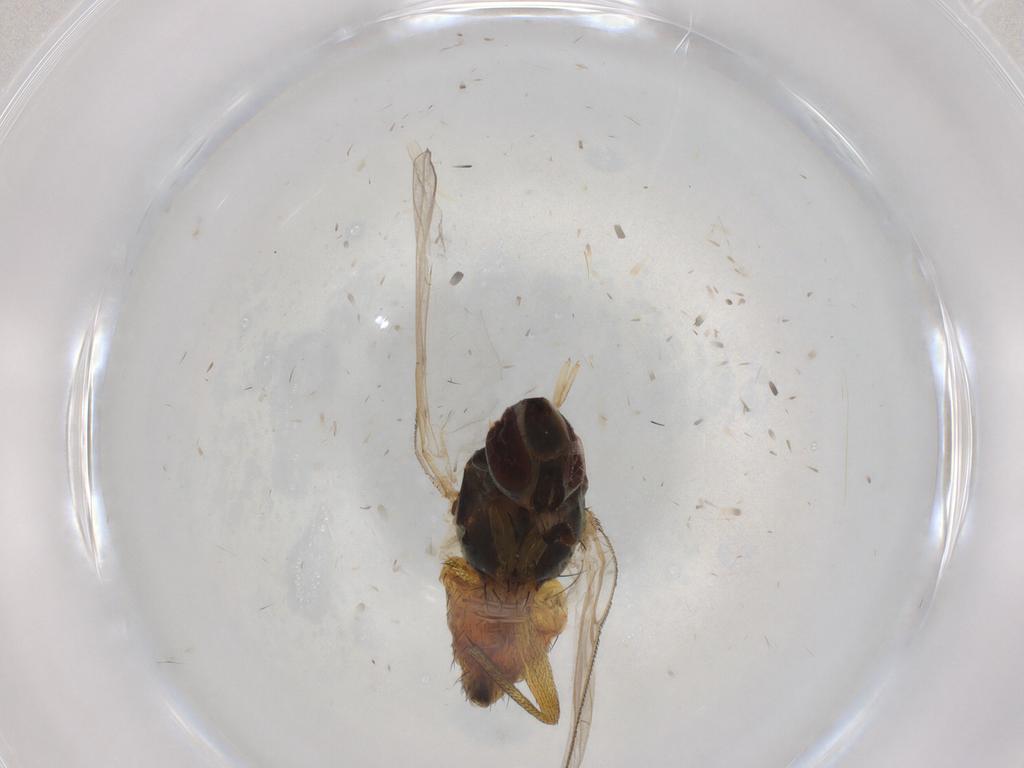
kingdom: Animalia
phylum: Arthropoda
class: Insecta
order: Diptera
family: Muscidae
